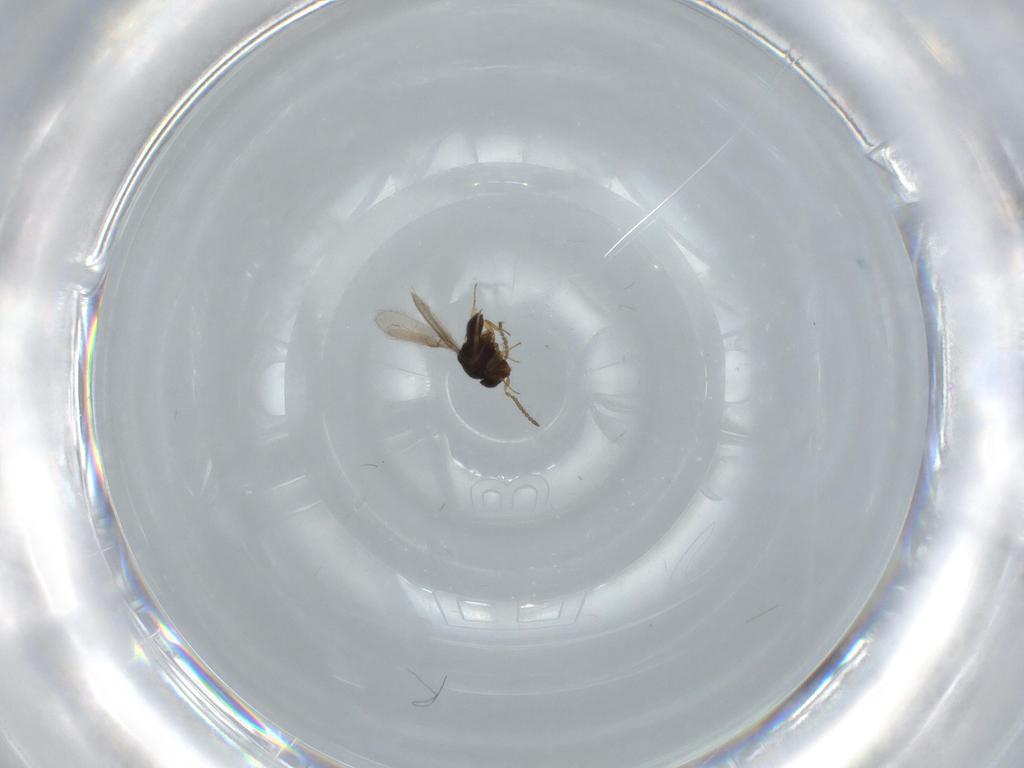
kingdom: Animalia
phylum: Arthropoda
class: Insecta
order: Hymenoptera
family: Scelionidae
